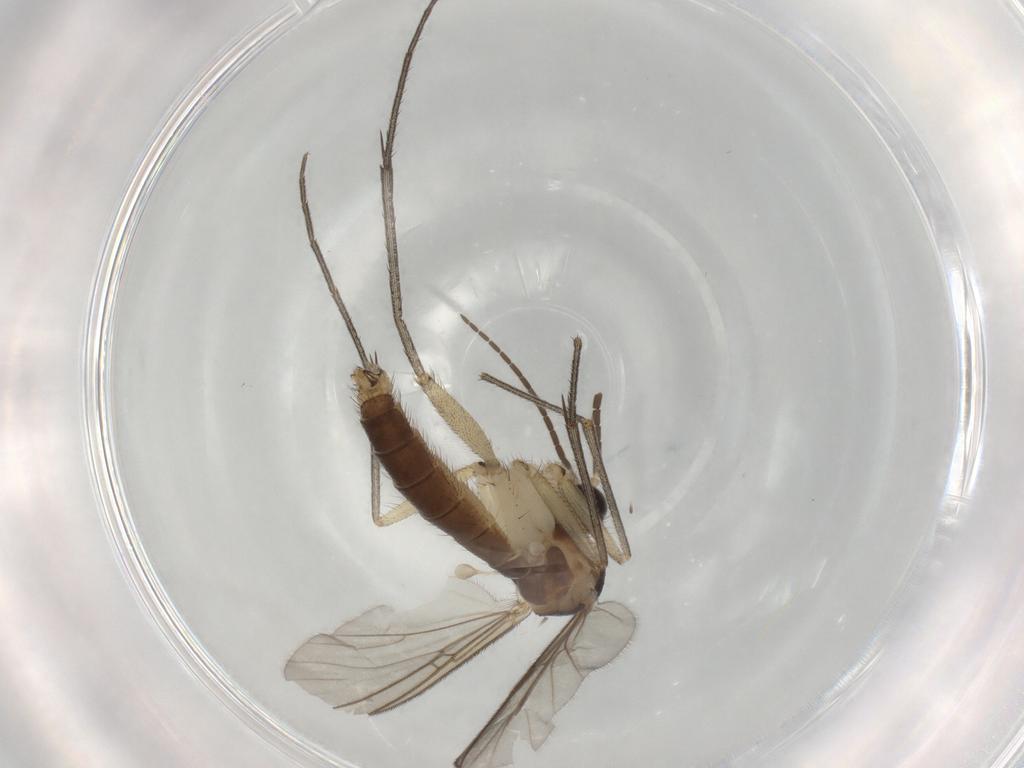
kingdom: Animalia
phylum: Arthropoda
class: Insecta
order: Diptera
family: Mycetophilidae
